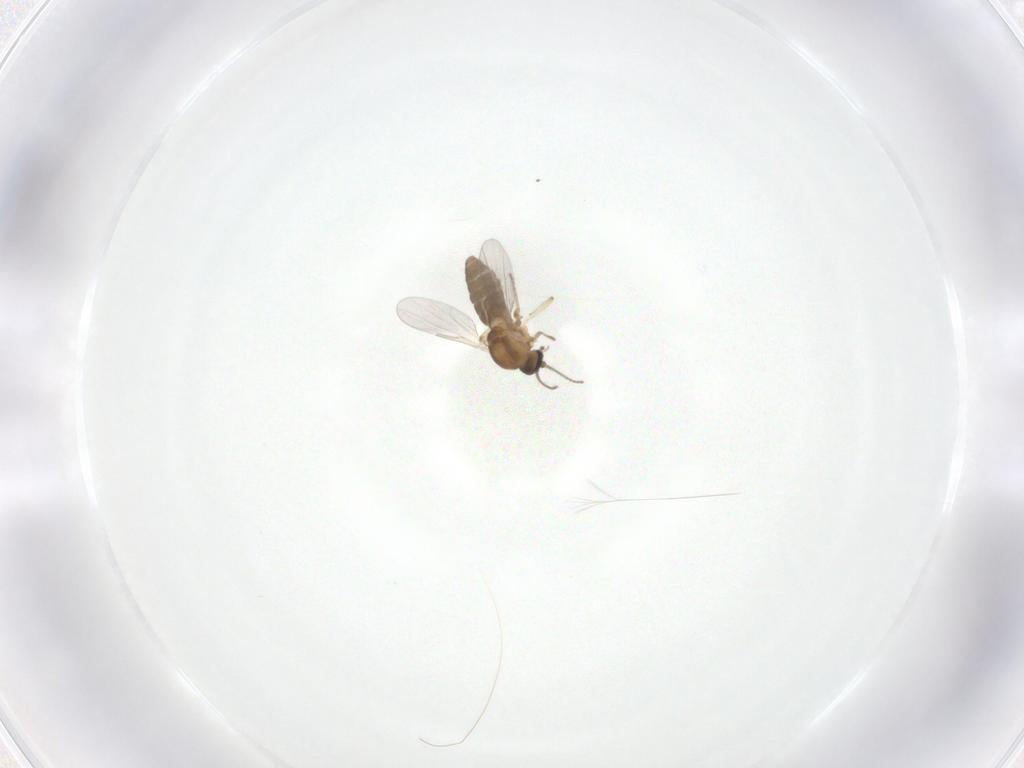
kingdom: Animalia
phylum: Arthropoda
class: Insecta
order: Diptera
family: Ceratopogonidae
